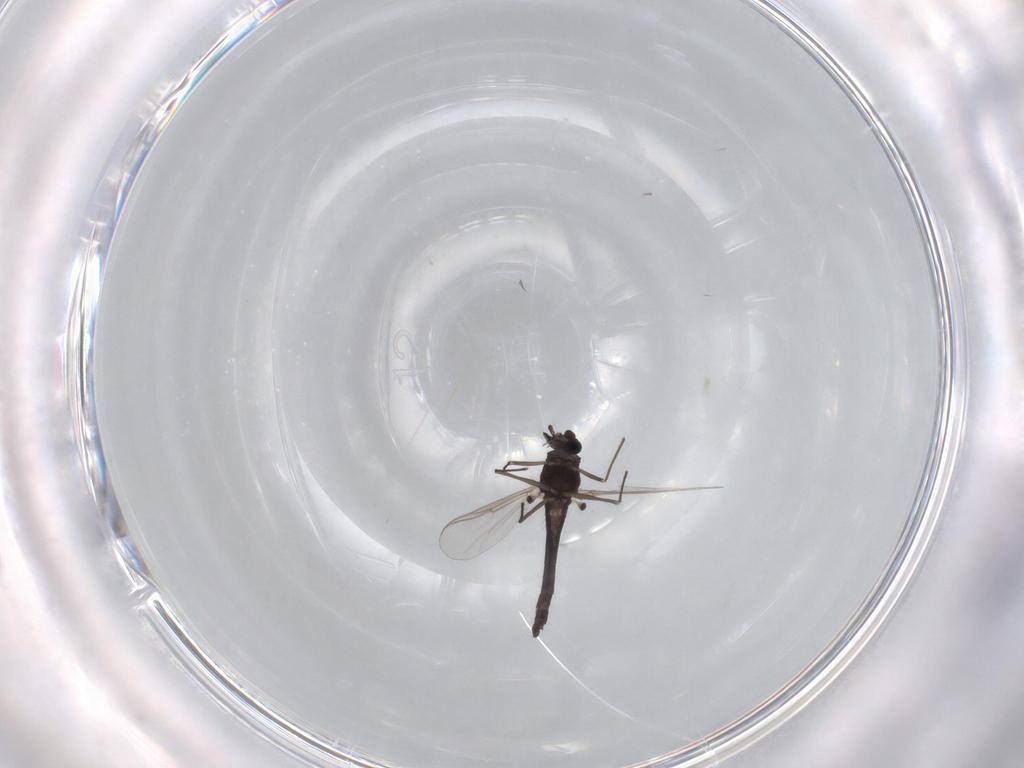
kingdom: Animalia
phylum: Arthropoda
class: Insecta
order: Diptera
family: Chironomidae
